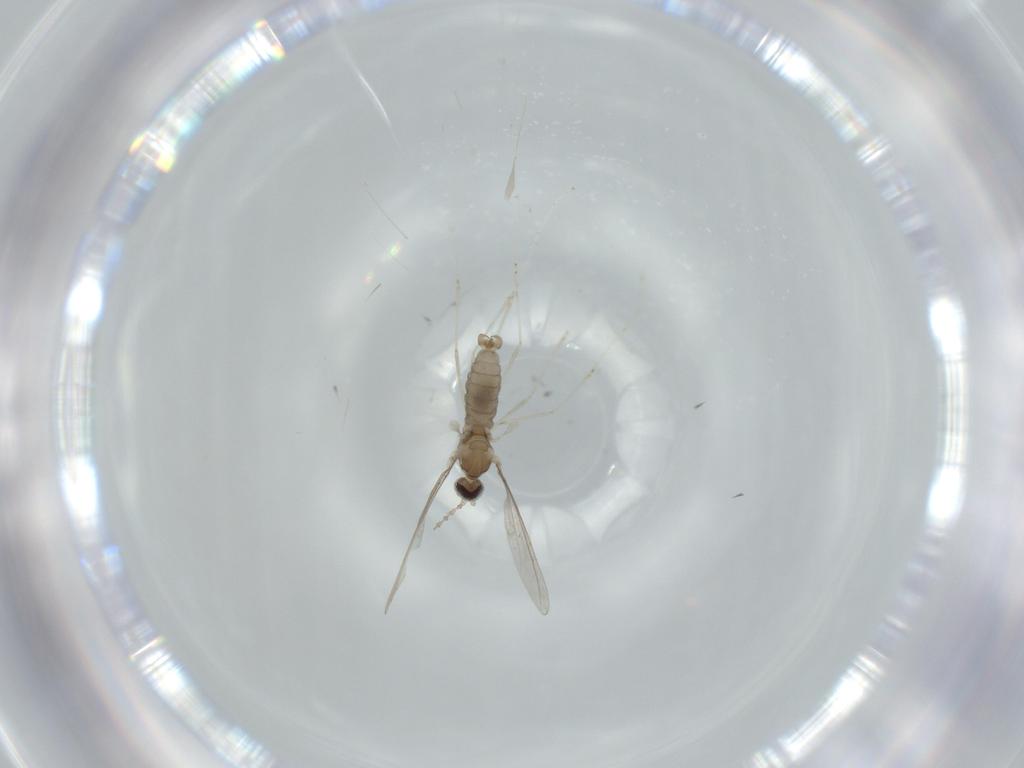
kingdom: Animalia
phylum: Arthropoda
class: Insecta
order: Diptera
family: Cecidomyiidae
